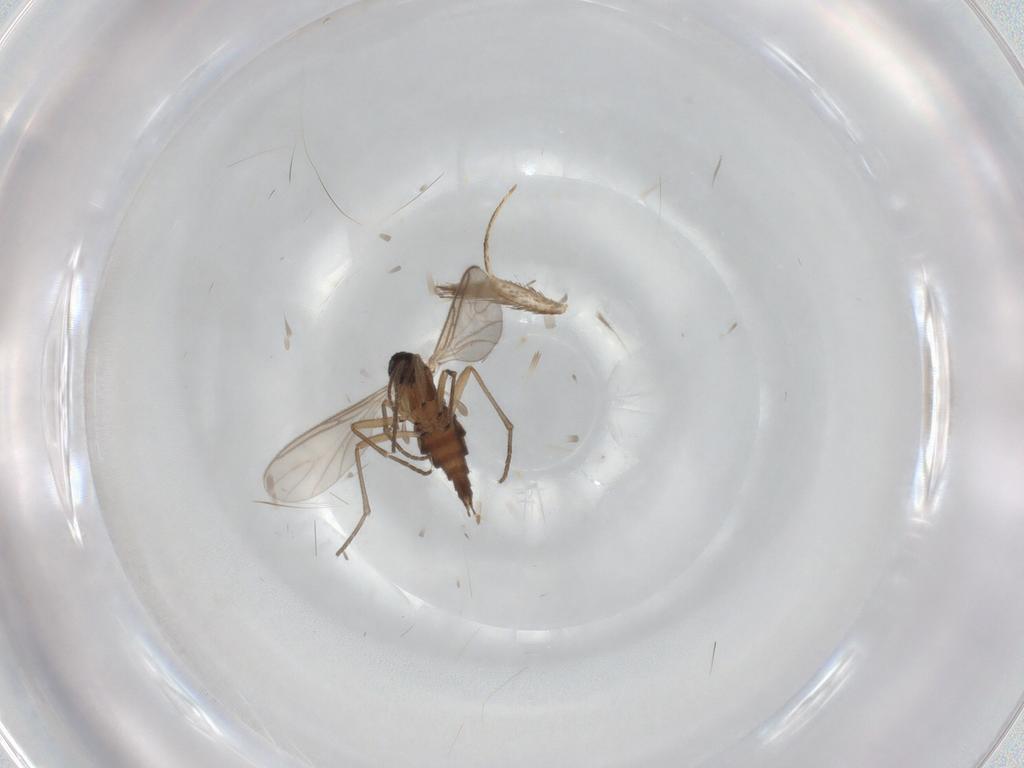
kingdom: Animalia
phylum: Arthropoda
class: Insecta
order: Diptera
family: Sciaridae
